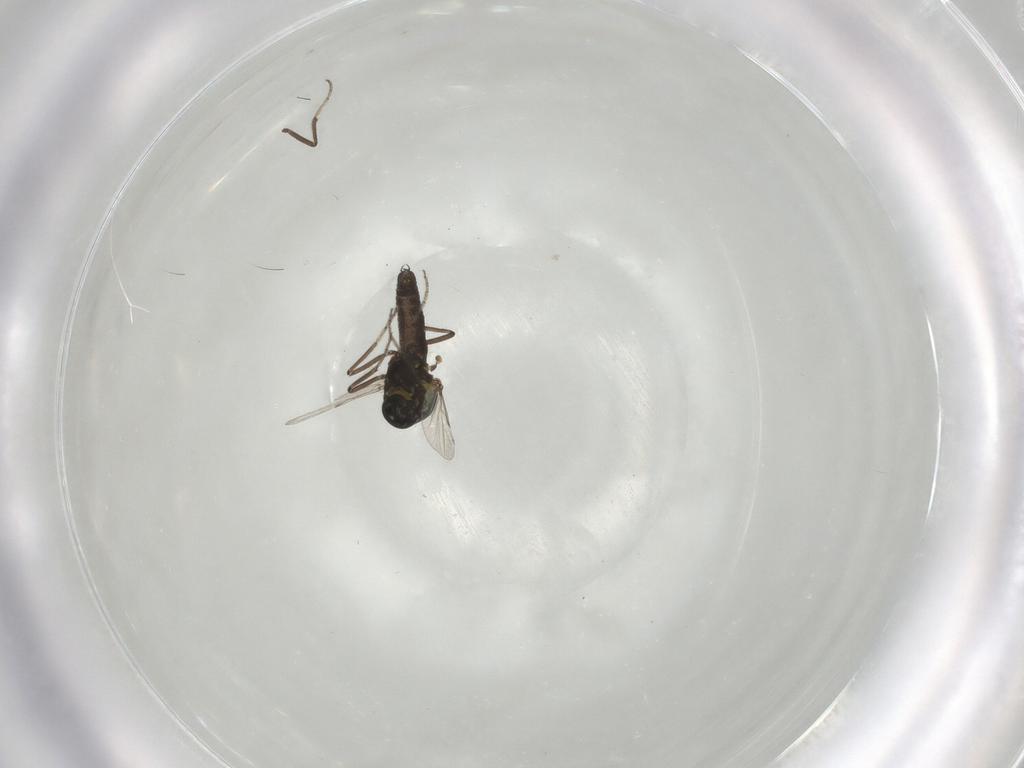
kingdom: Animalia
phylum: Arthropoda
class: Insecta
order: Diptera
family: Ceratopogonidae
